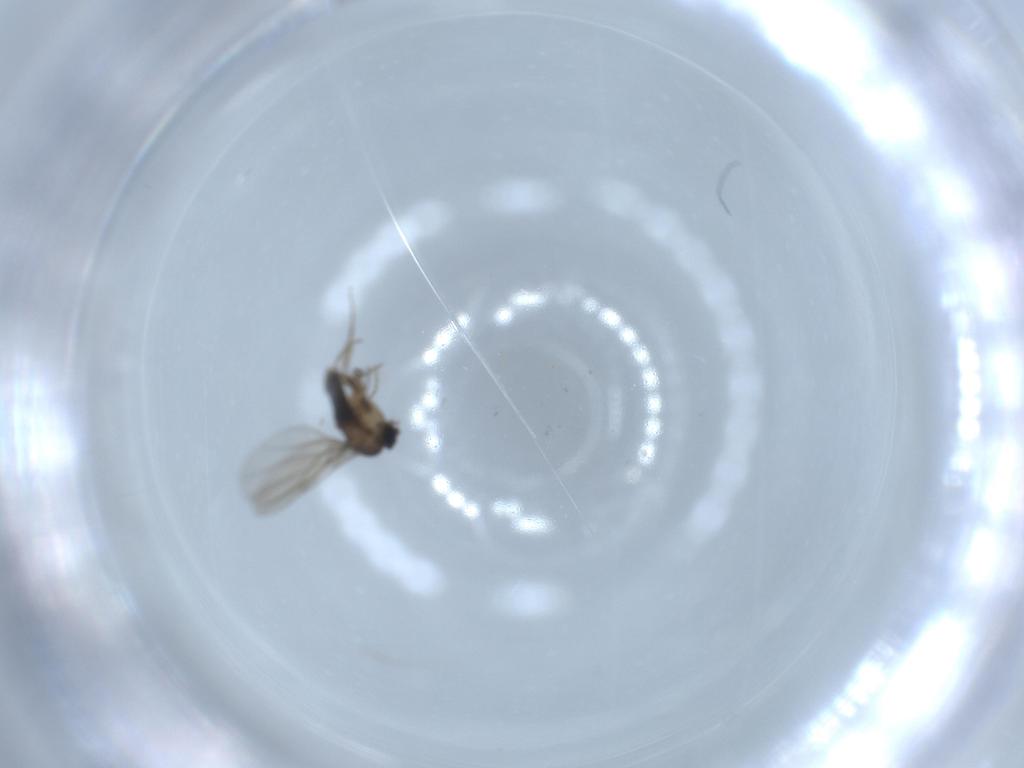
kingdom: Animalia
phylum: Arthropoda
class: Insecta
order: Diptera
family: Phoridae
